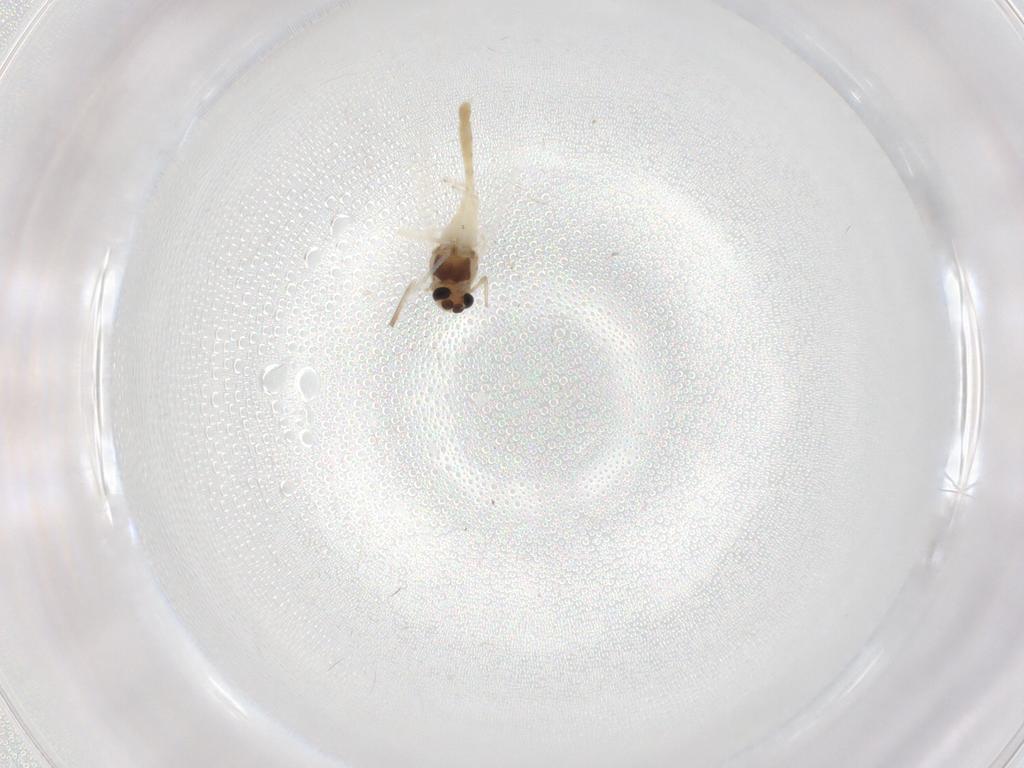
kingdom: Animalia
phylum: Arthropoda
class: Insecta
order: Diptera
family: Chironomidae
